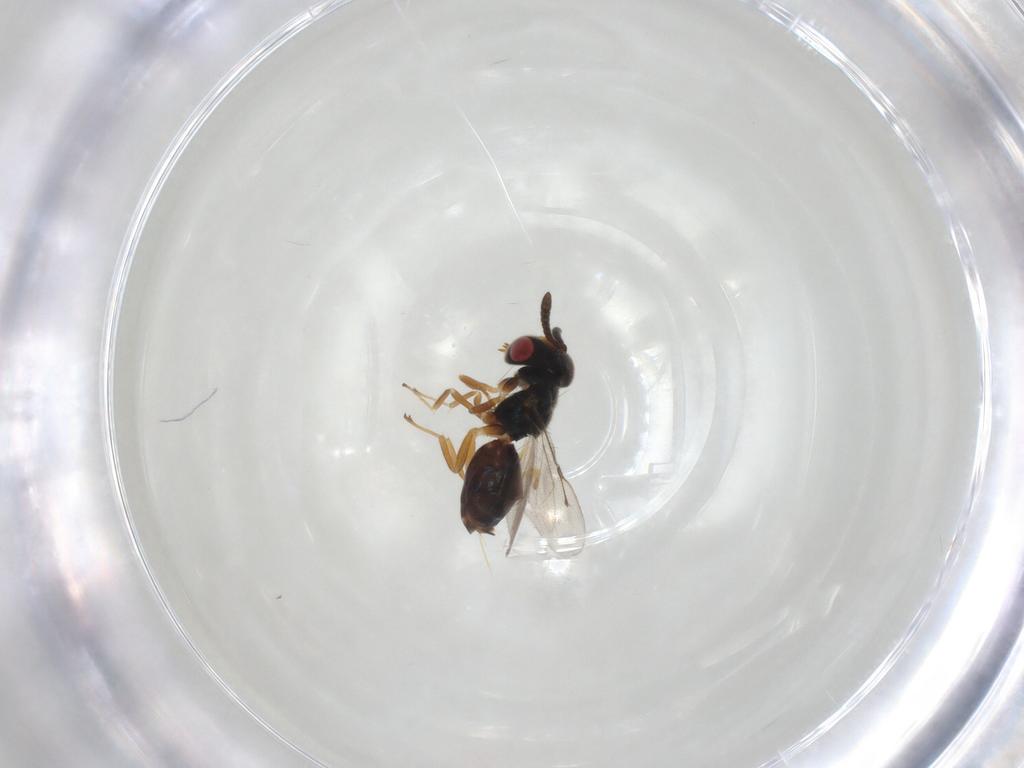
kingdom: Animalia
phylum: Arthropoda
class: Insecta
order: Hymenoptera
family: Ichneumonidae
